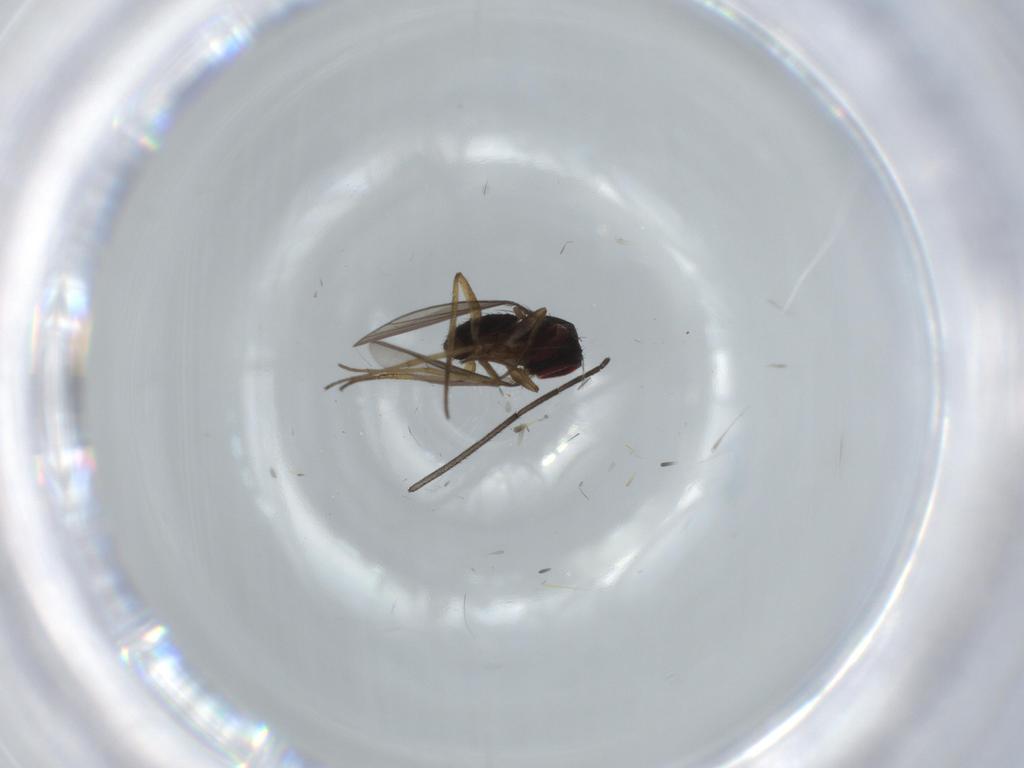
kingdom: Animalia
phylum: Arthropoda
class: Insecta
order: Diptera
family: Dolichopodidae
